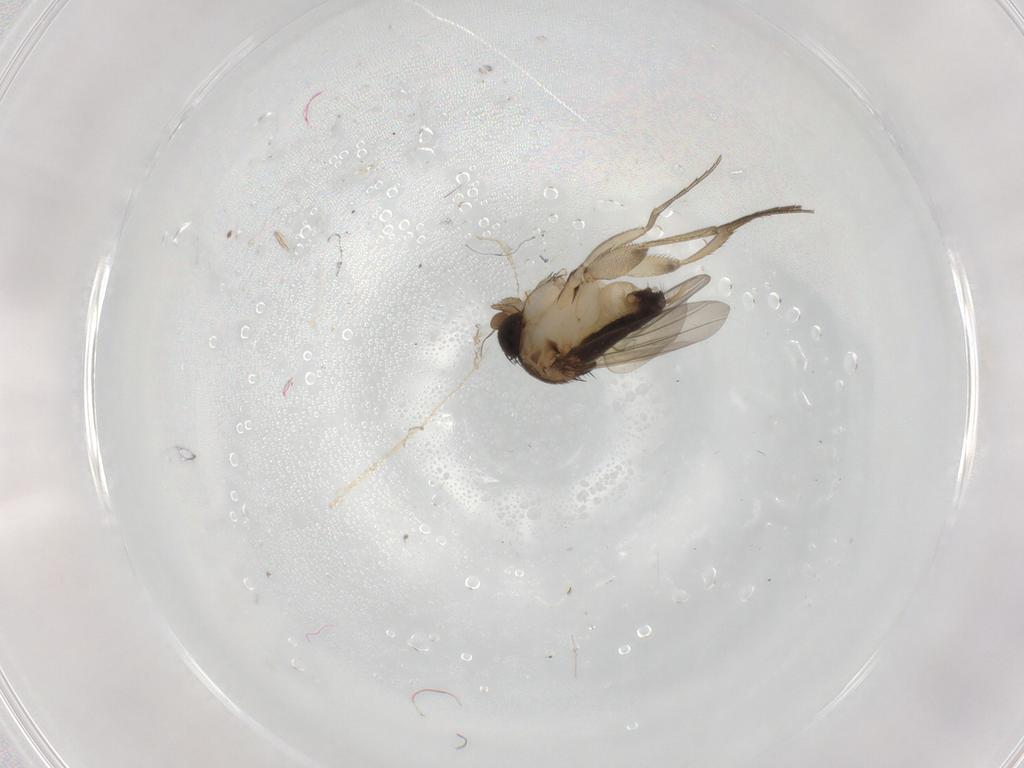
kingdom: Animalia
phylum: Arthropoda
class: Insecta
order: Diptera
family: Phoridae
